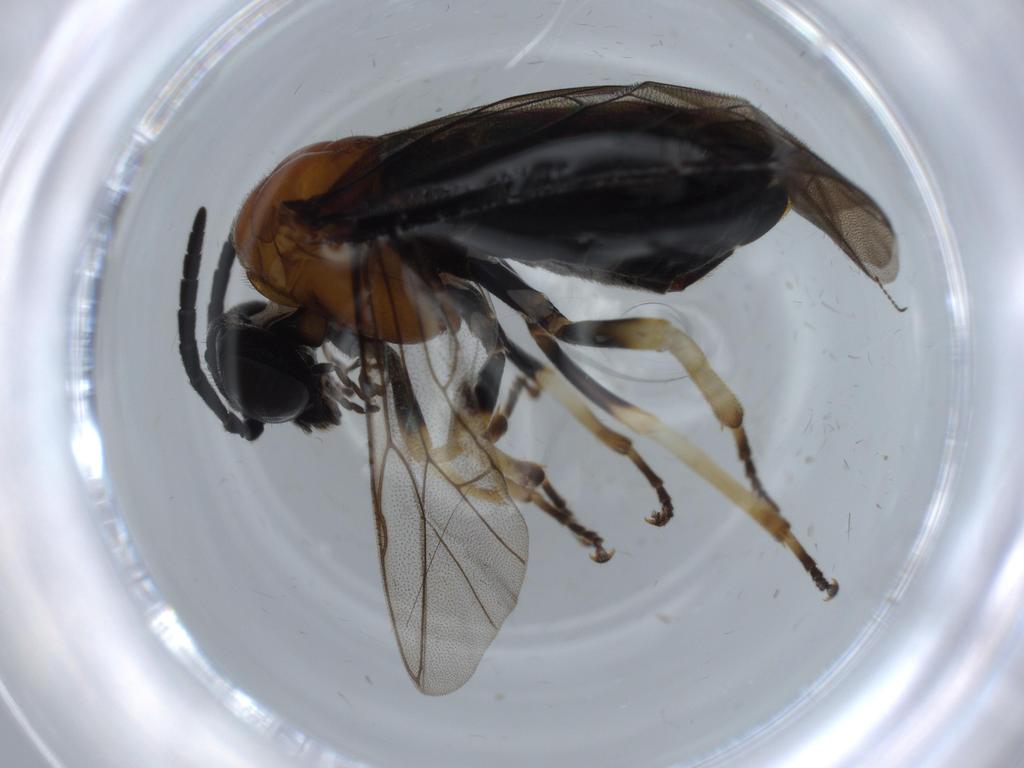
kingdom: Animalia
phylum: Arthropoda
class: Insecta
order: Hymenoptera
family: Tenthredinidae
